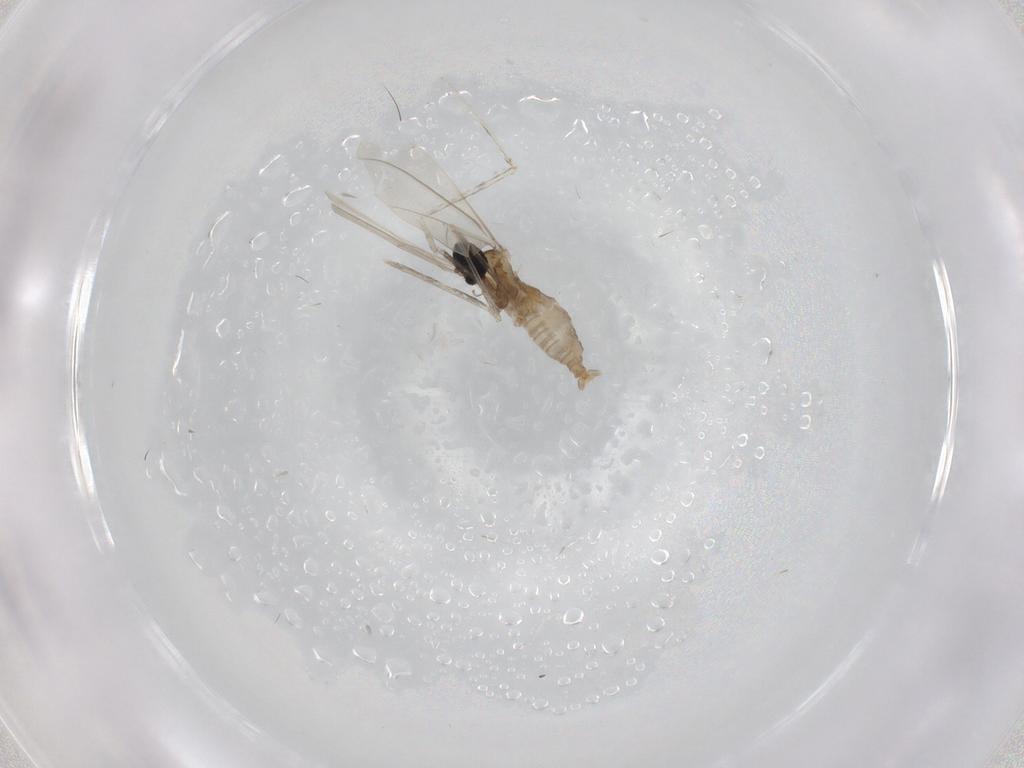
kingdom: Animalia
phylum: Arthropoda
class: Insecta
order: Diptera
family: Cecidomyiidae
